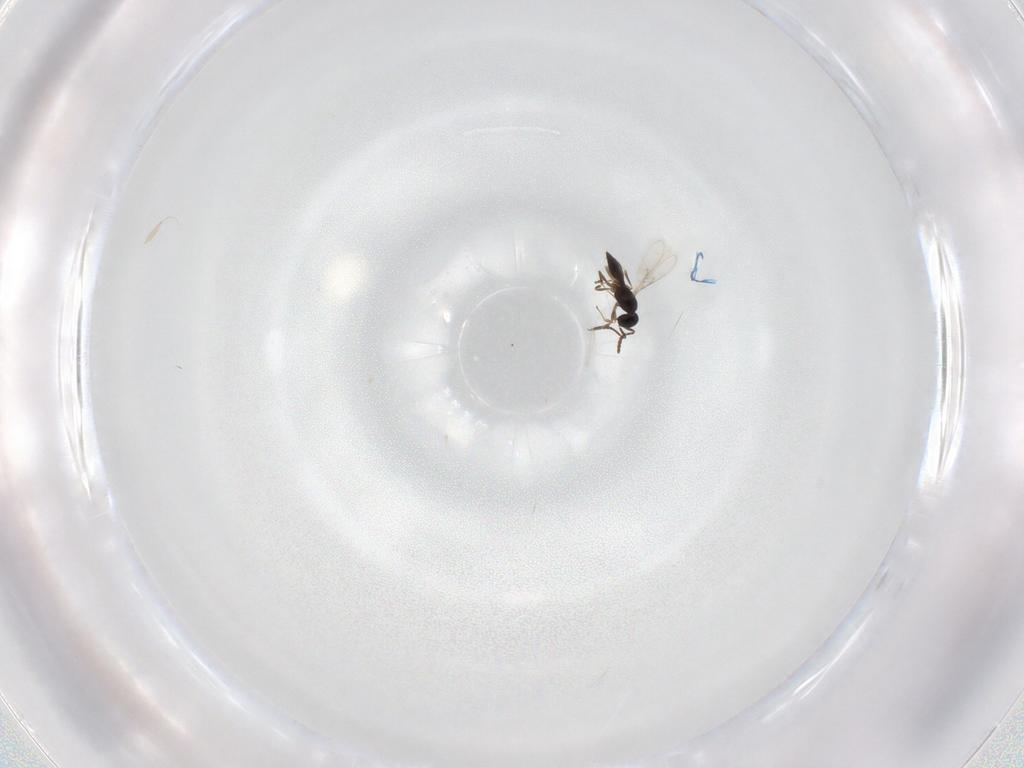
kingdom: Animalia
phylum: Arthropoda
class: Insecta
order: Hymenoptera
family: Scelionidae
